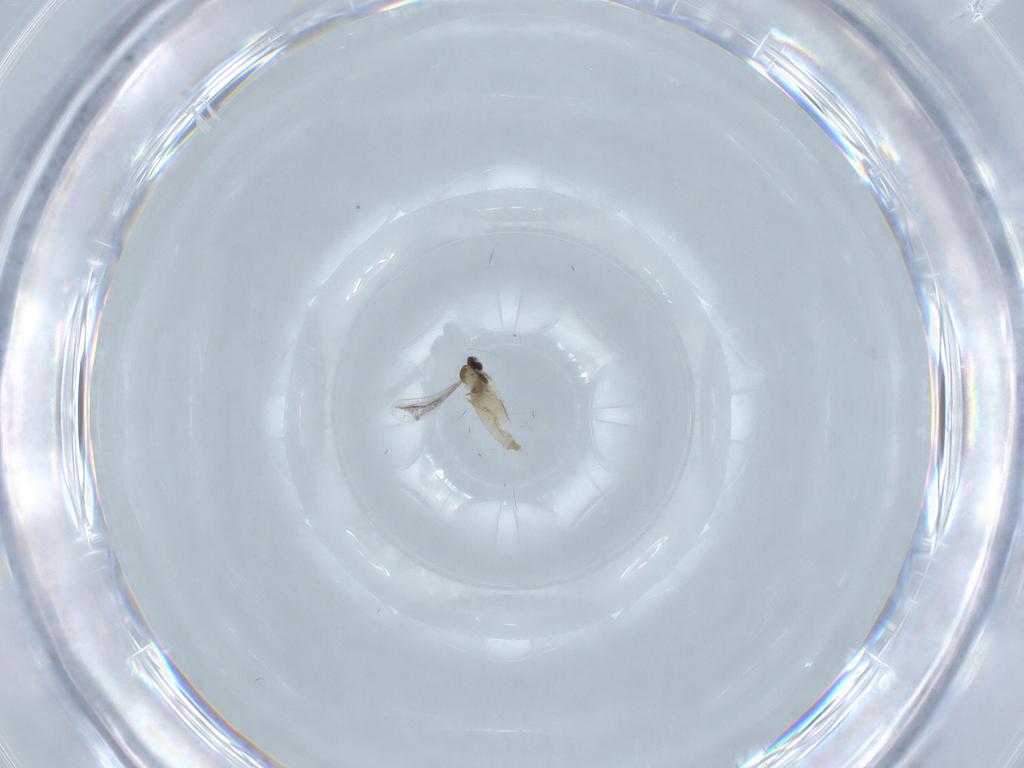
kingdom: Animalia
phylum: Arthropoda
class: Insecta
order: Diptera
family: Cecidomyiidae
